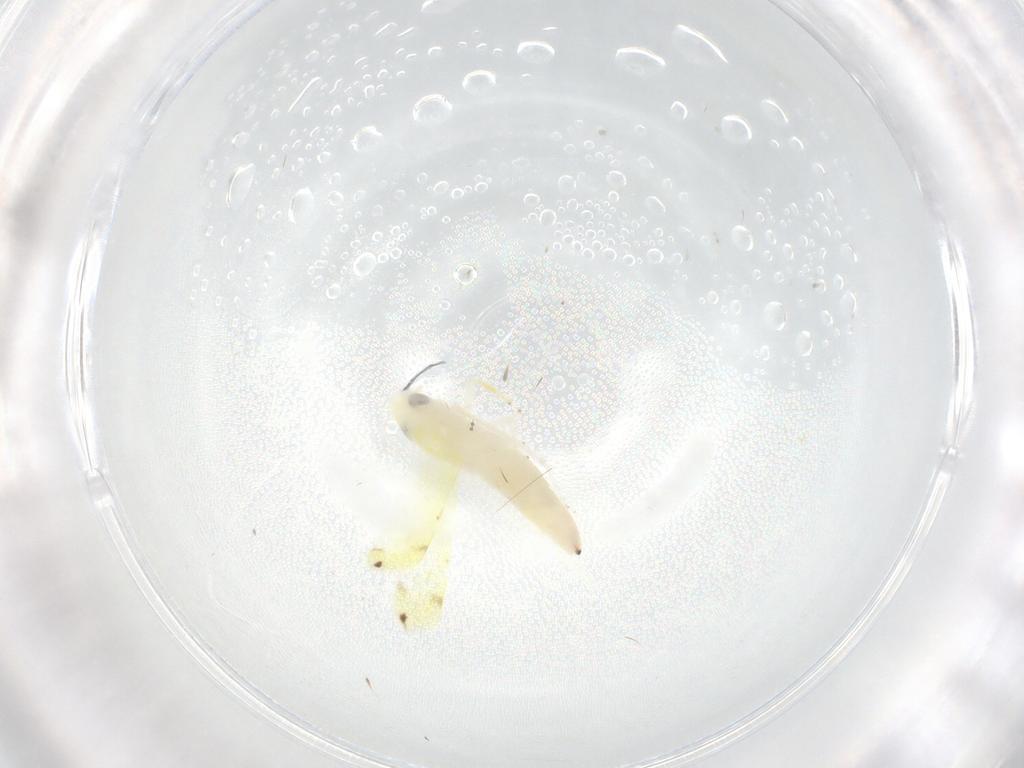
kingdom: Animalia
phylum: Arthropoda
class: Insecta
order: Hemiptera
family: Cicadellidae
